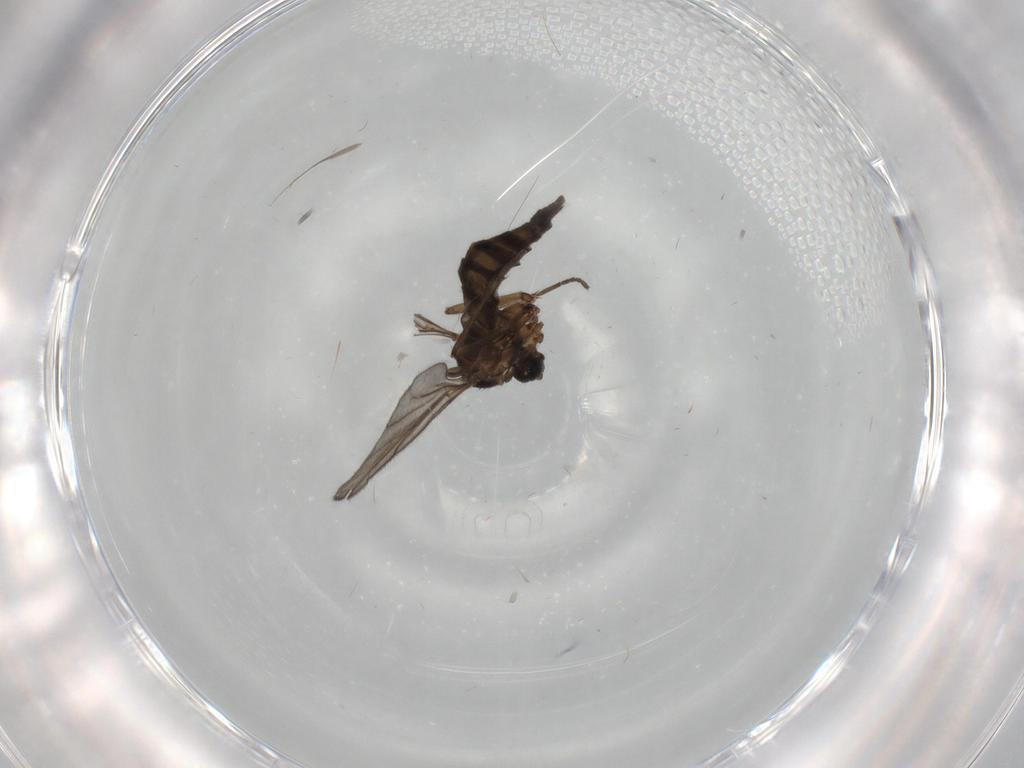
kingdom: Animalia
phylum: Arthropoda
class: Insecta
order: Diptera
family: Sciaridae
